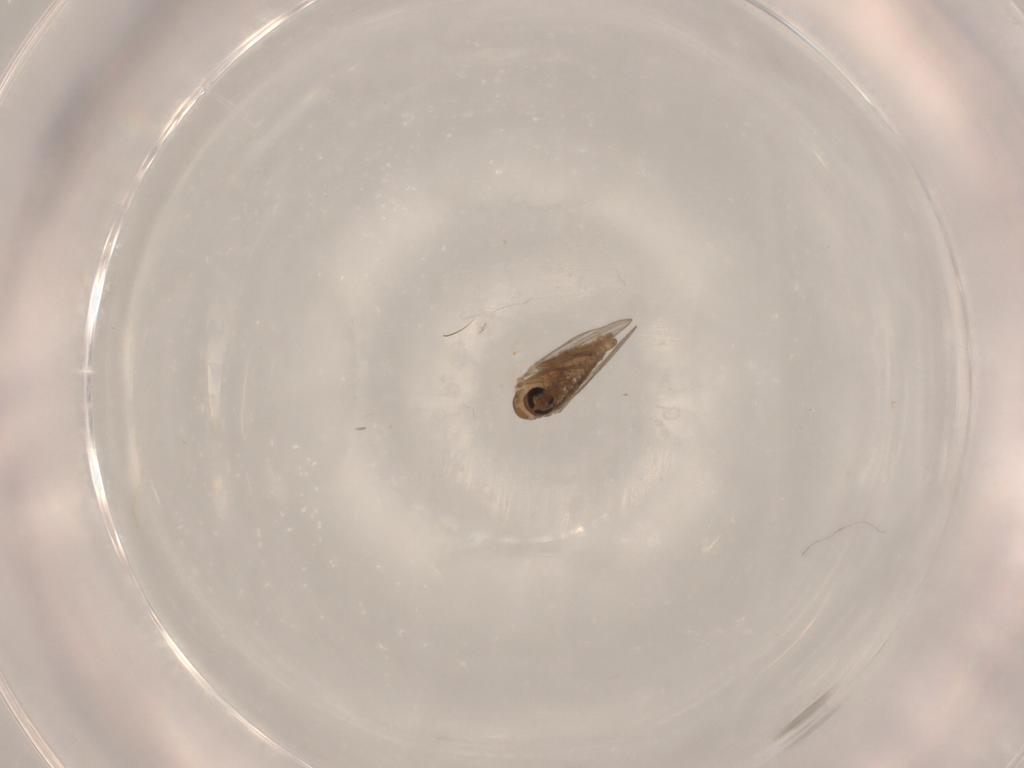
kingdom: Animalia
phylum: Arthropoda
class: Insecta
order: Diptera
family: Psychodidae
